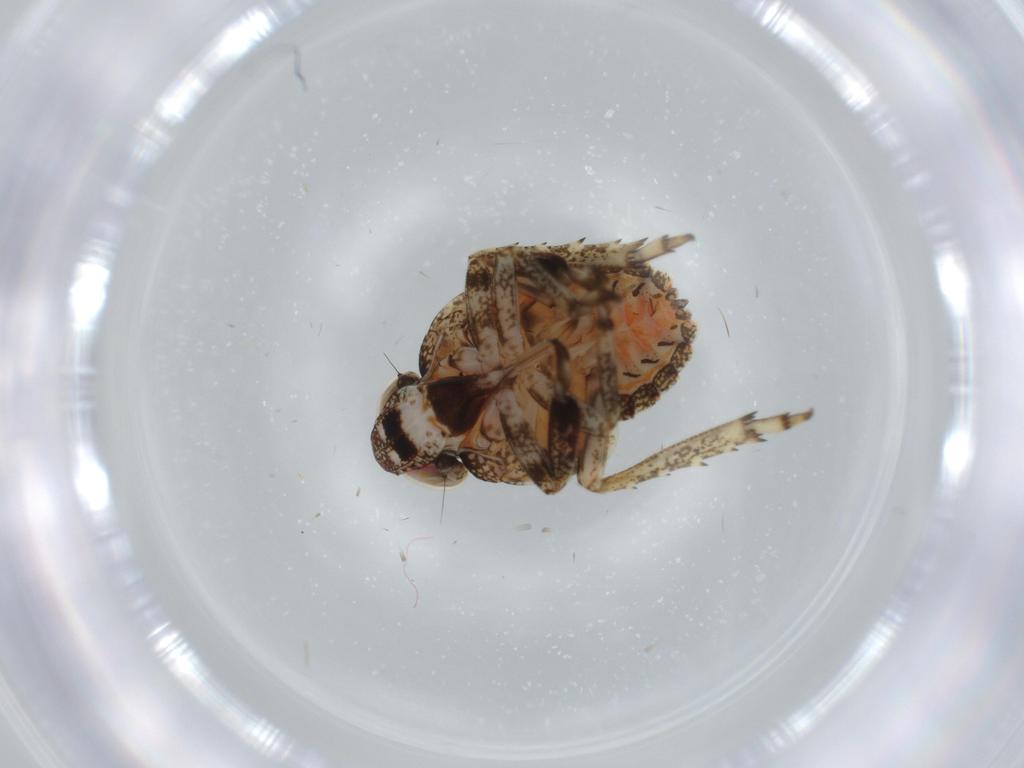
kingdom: Animalia
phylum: Arthropoda
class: Insecta
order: Hemiptera
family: Issidae
